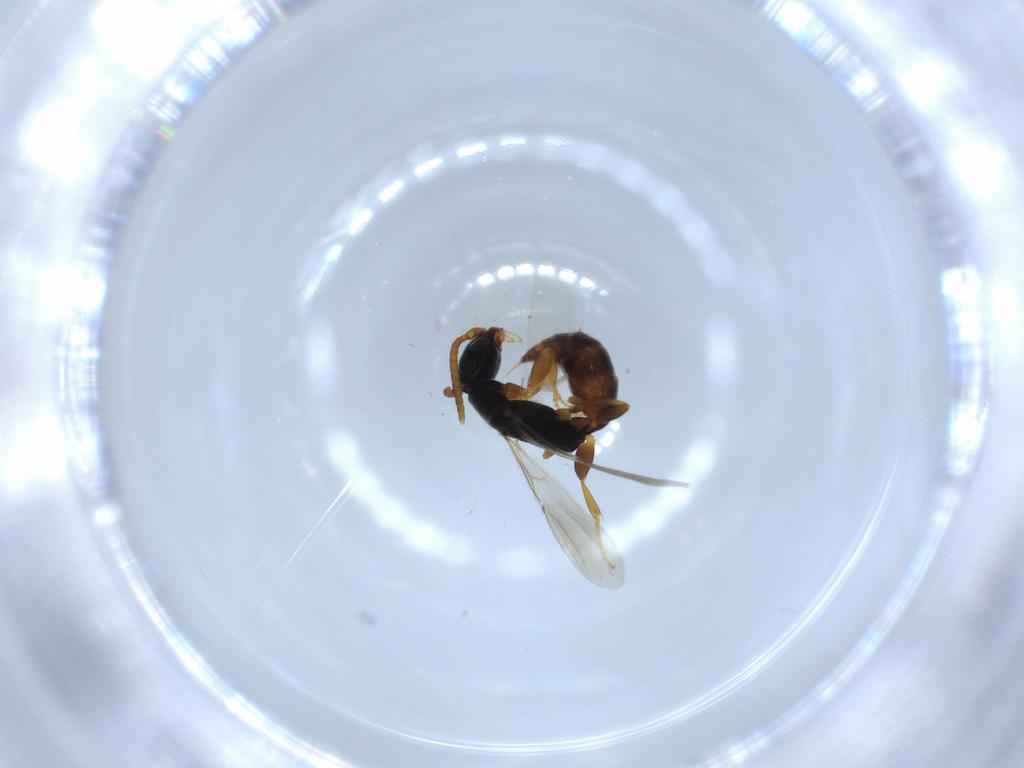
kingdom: Animalia
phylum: Arthropoda
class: Insecta
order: Hymenoptera
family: Bethylidae
